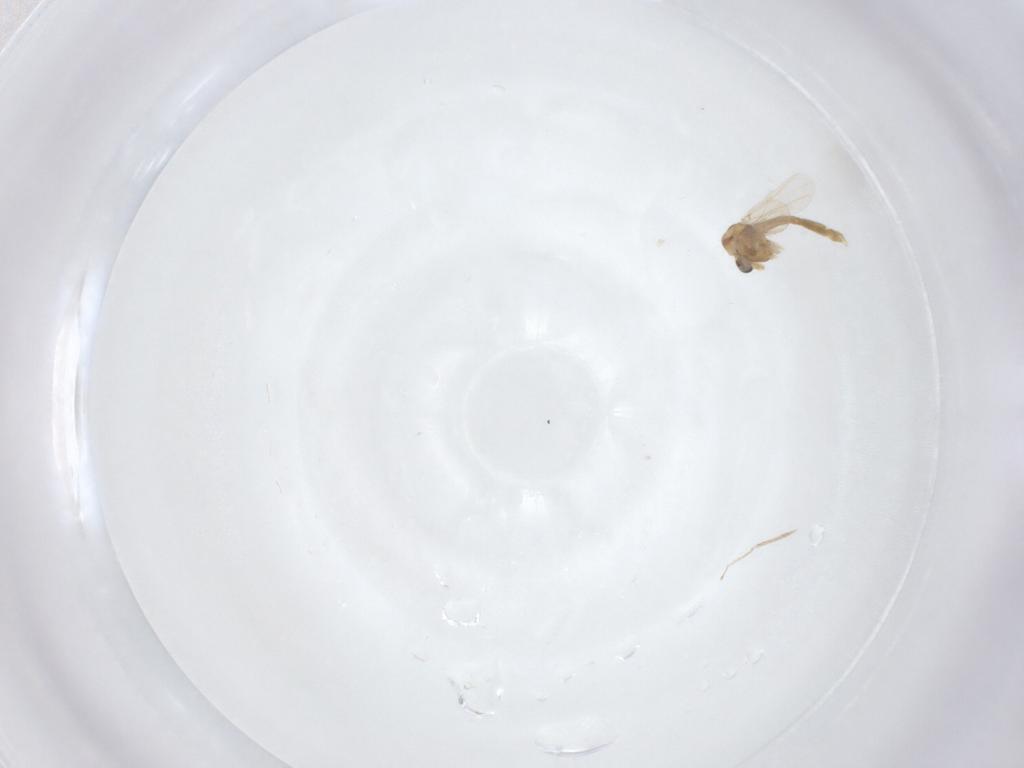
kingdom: Animalia
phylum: Arthropoda
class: Insecta
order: Diptera
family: Chironomidae
